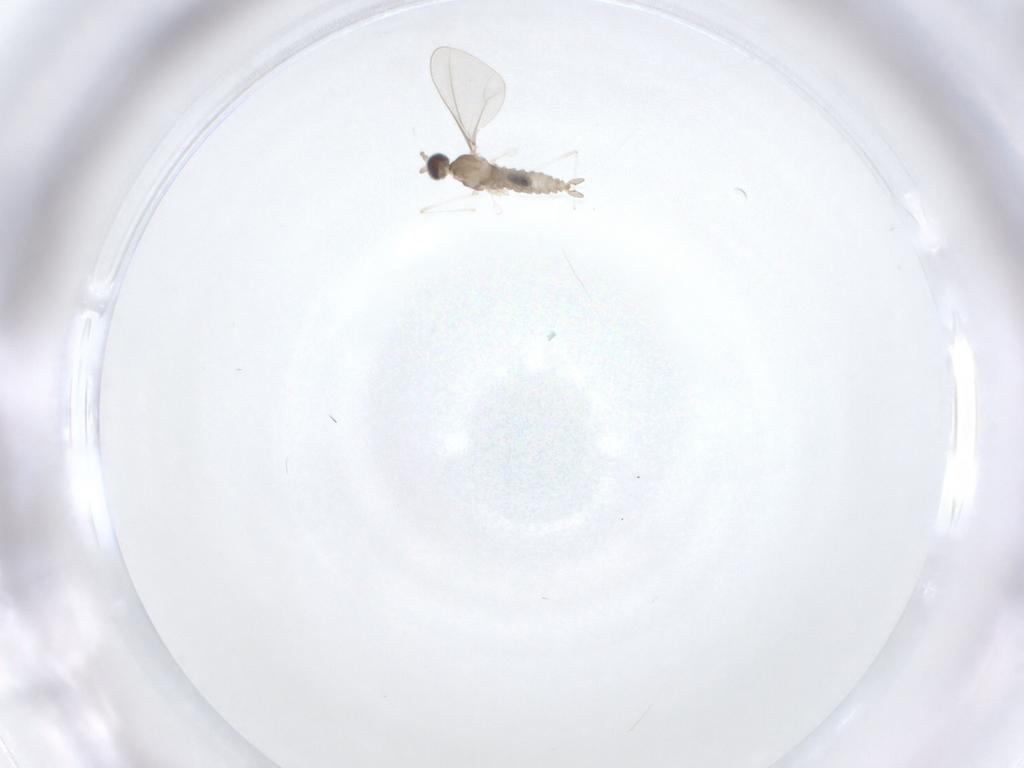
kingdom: Animalia
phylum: Arthropoda
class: Insecta
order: Diptera
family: Cecidomyiidae
